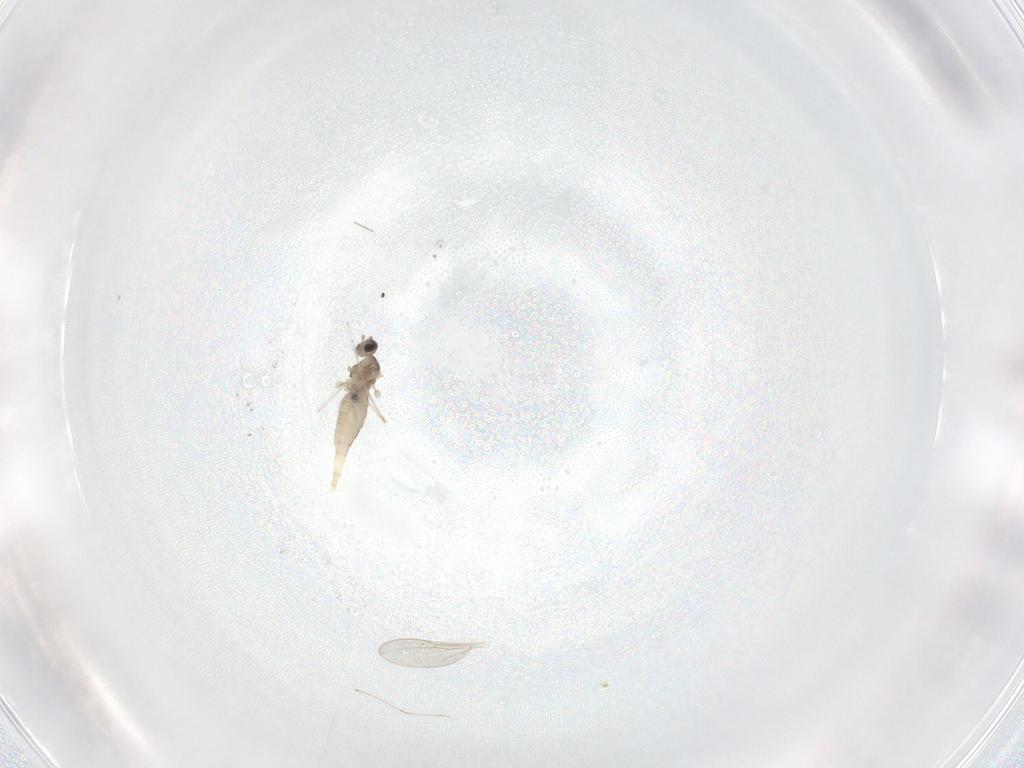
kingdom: Animalia
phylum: Arthropoda
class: Insecta
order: Diptera
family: Cecidomyiidae
